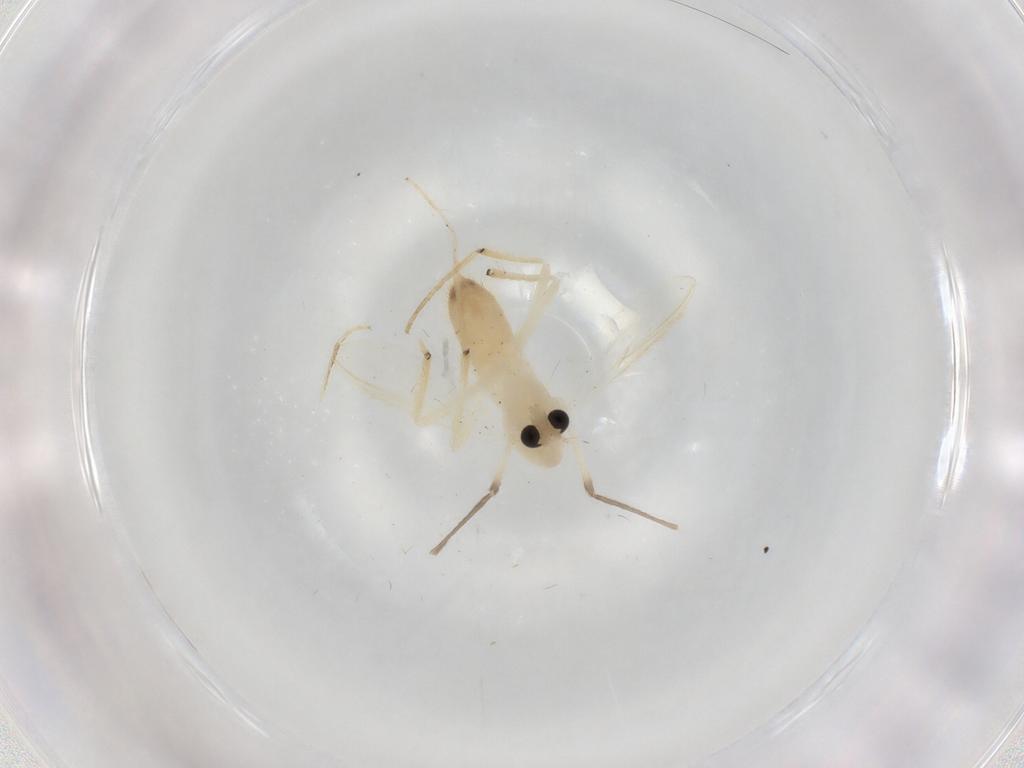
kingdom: Animalia
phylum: Arthropoda
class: Insecta
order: Diptera
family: Chironomidae
